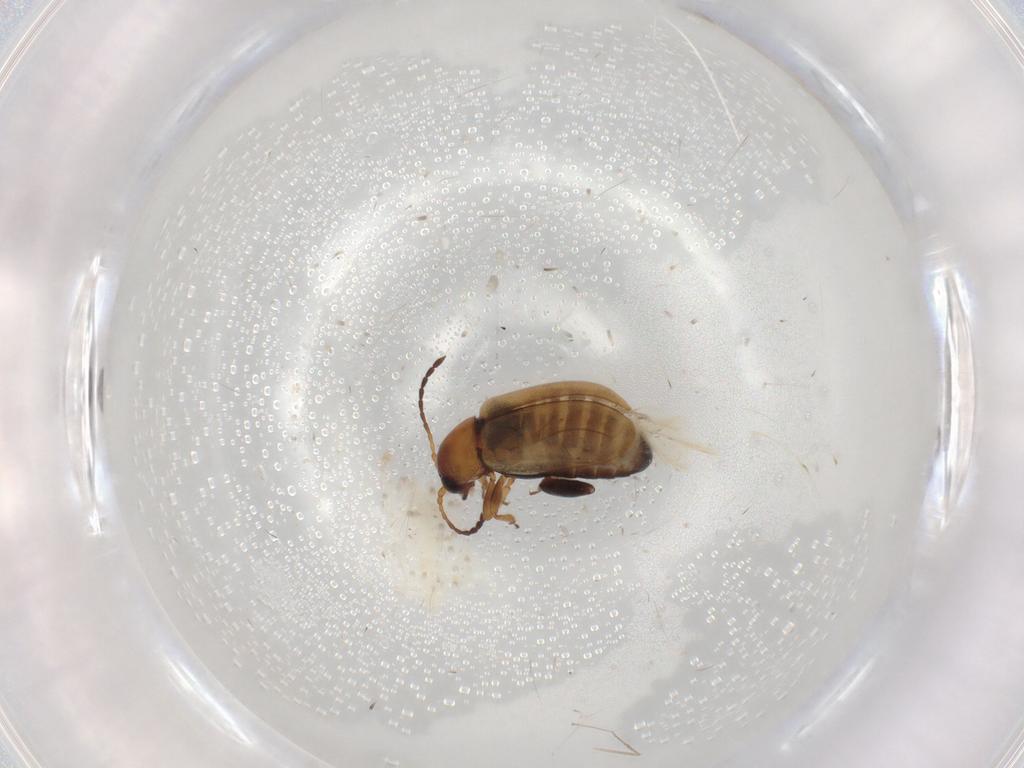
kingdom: Animalia
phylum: Arthropoda
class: Insecta
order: Coleoptera
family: Chrysomelidae
